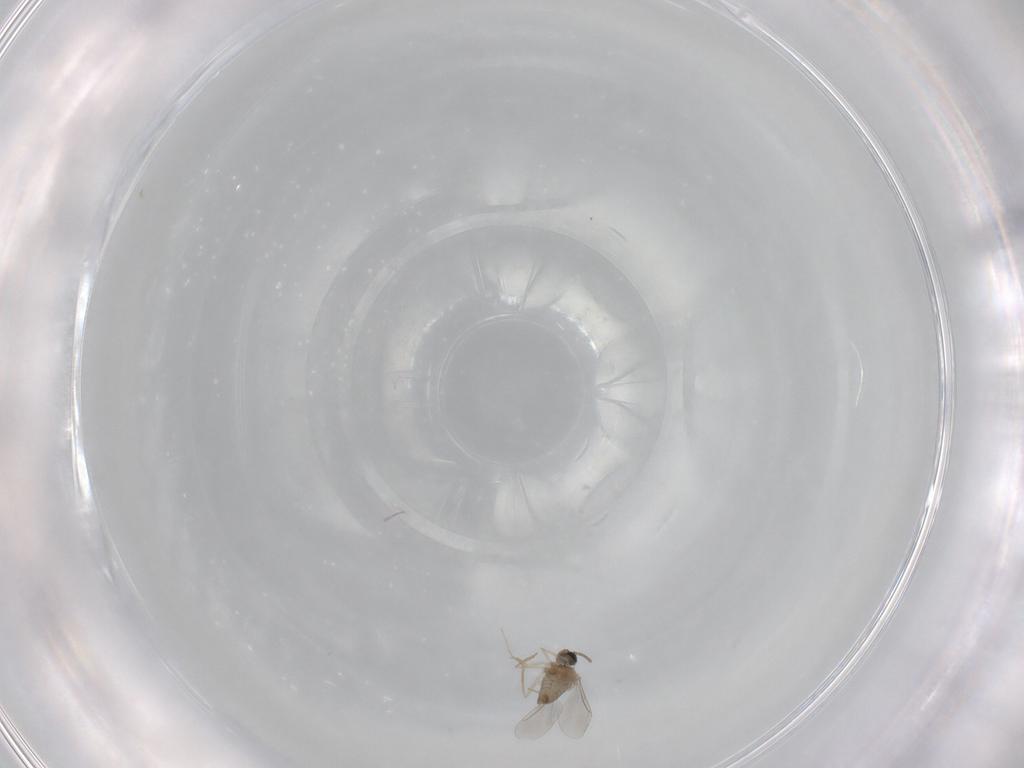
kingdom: Animalia
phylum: Arthropoda
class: Insecta
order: Diptera
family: Cecidomyiidae
